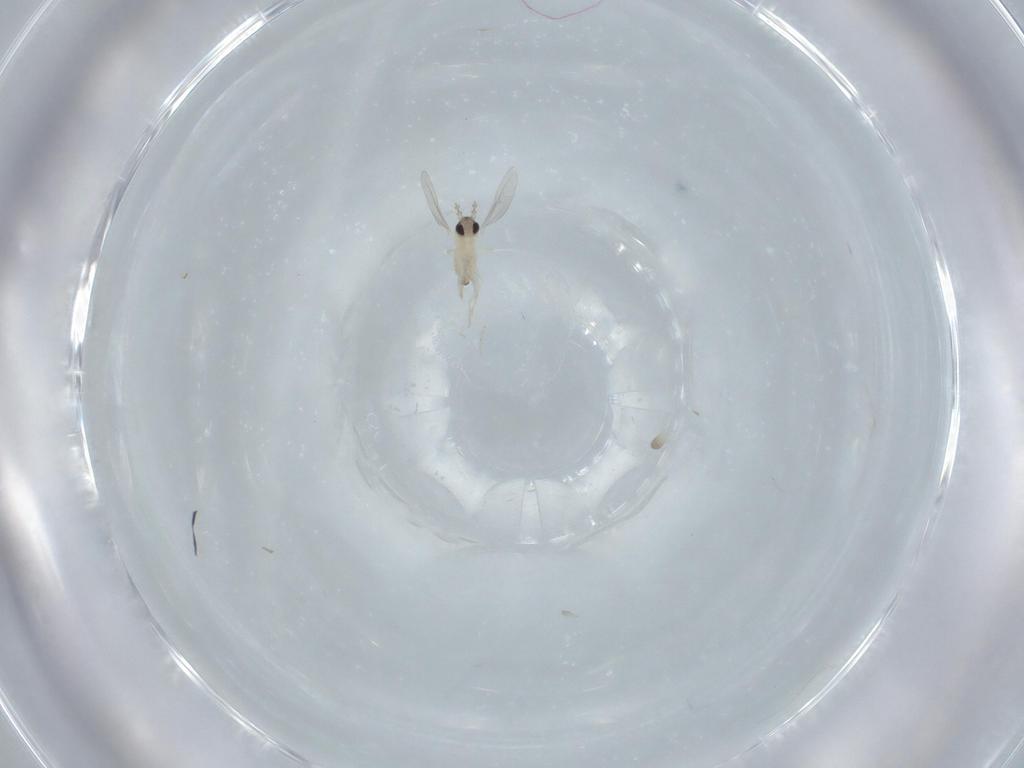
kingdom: Animalia
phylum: Arthropoda
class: Insecta
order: Diptera
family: Cecidomyiidae
